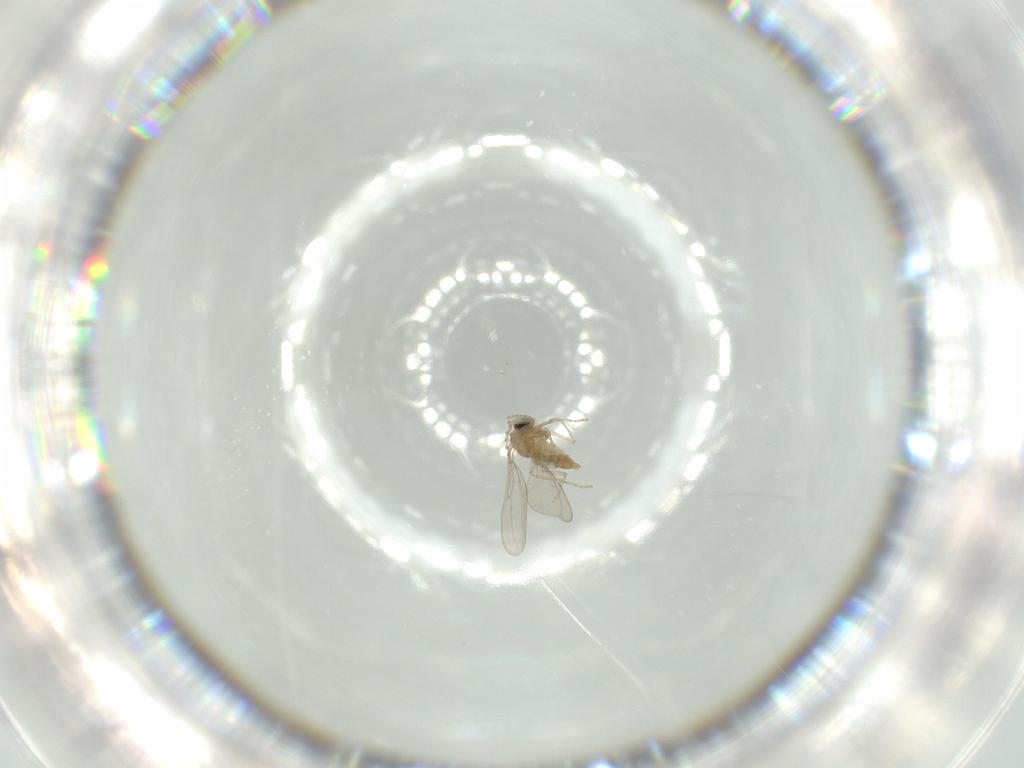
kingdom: Animalia
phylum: Arthropoda
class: Insecta
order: Diptera
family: Cecidomyiidae
